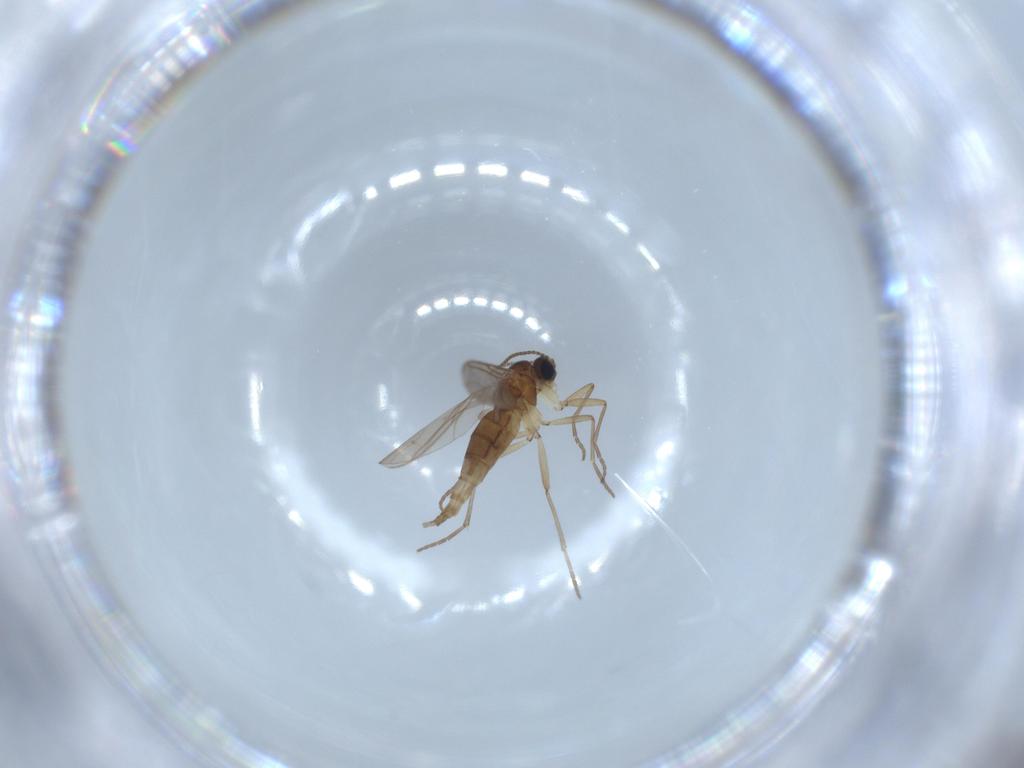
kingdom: Animalia
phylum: Arthropoda
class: Insecta
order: Diptera
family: Sciaridae
